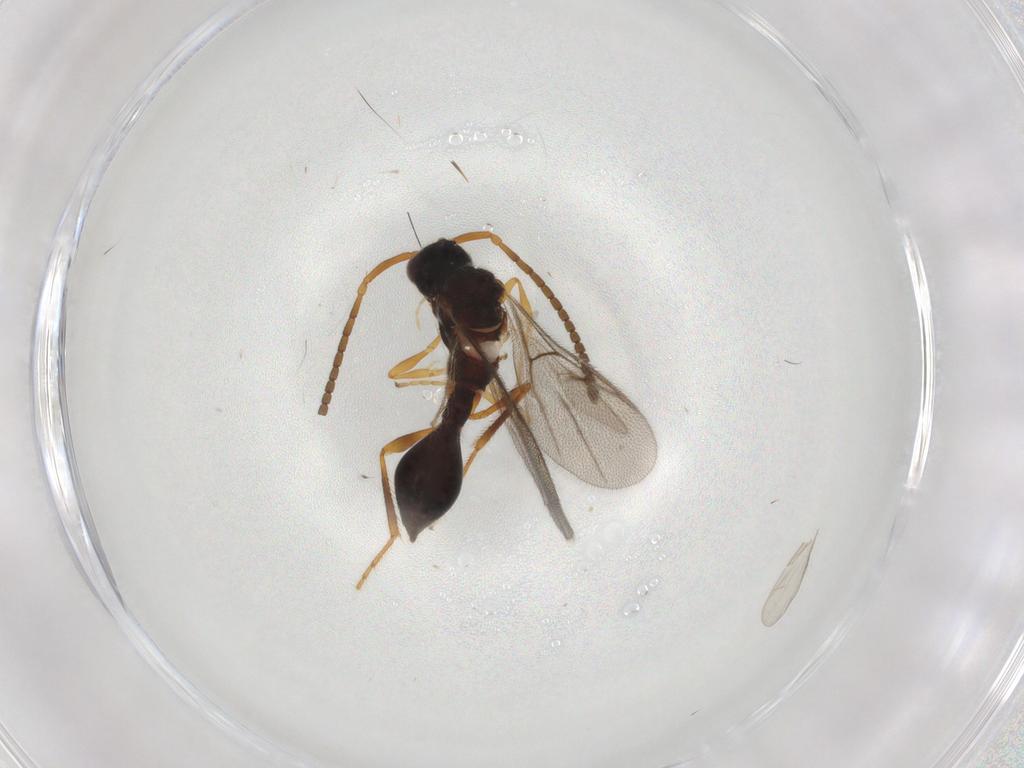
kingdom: Animalia
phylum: Arthropoda
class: Insecta
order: Hymenoptera
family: Diapriidae
